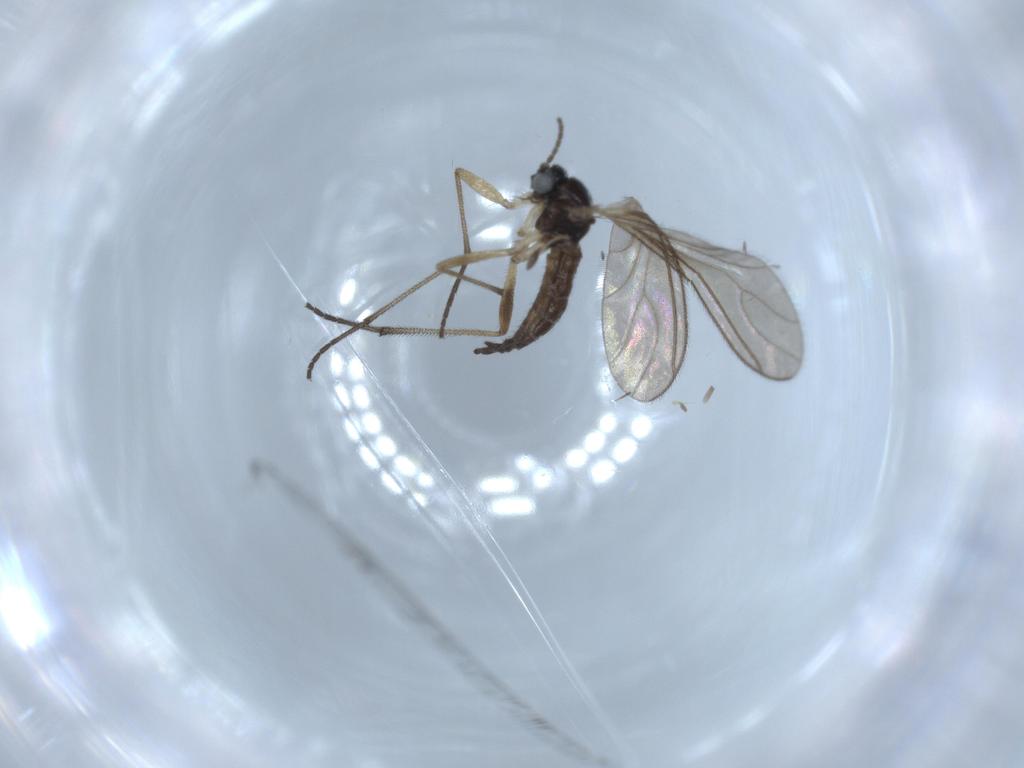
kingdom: Animalia
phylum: Arthropoda
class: Insecta
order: Diptera
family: Sciaridae
